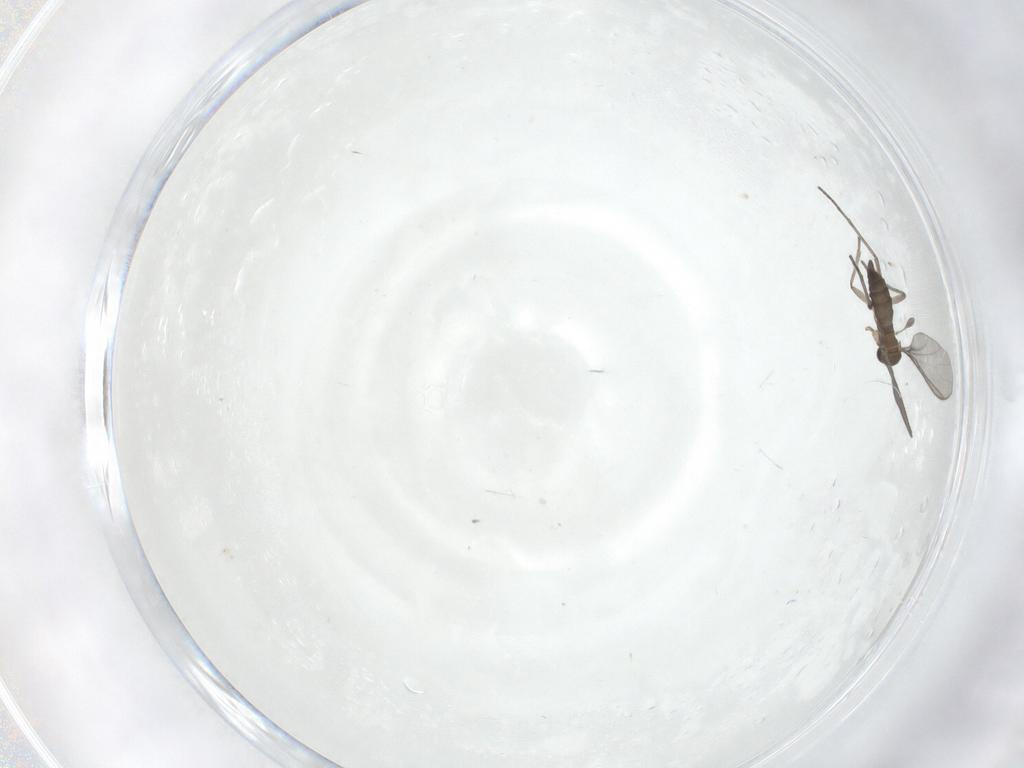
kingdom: Animalia
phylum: Arthropoda
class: Insecta
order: Diptera
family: Sciaridae
